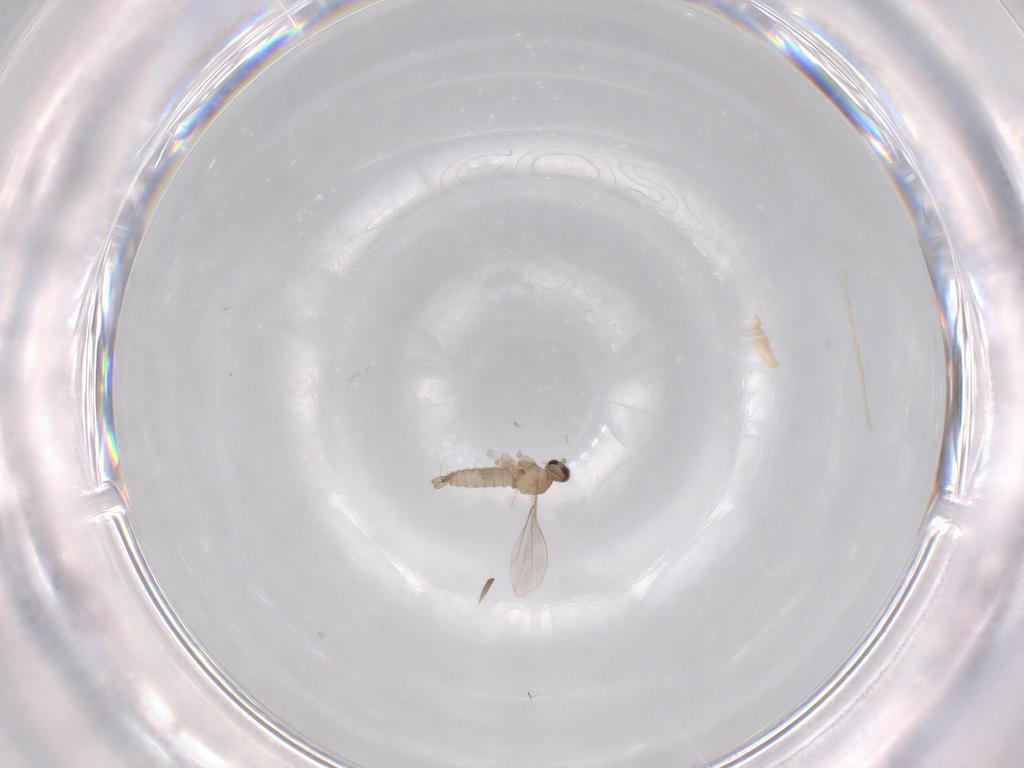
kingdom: Animalia
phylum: Arthropoda
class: Insecta
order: Diptera
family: Cecidomyiidae
